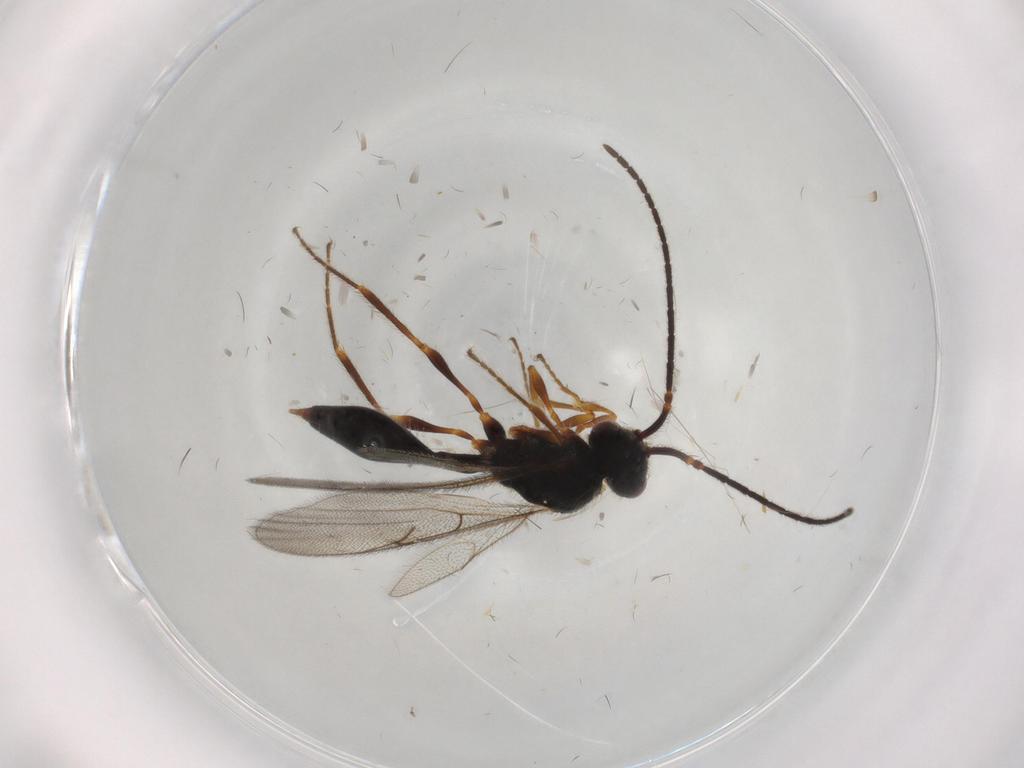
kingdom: Animalia
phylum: Arthropoda
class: Insecta
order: Hymenoptera
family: Diapriidae
